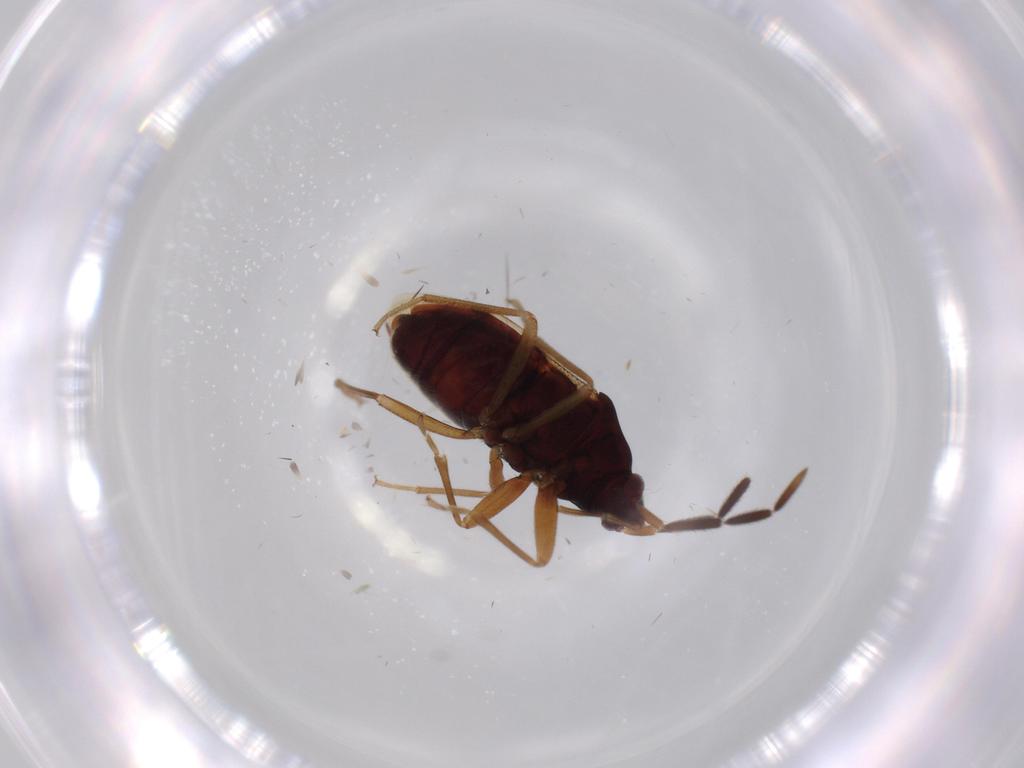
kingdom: Animalia
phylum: Arthropoda
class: Insecta
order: Hemiptera
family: Rhyparochromidae
